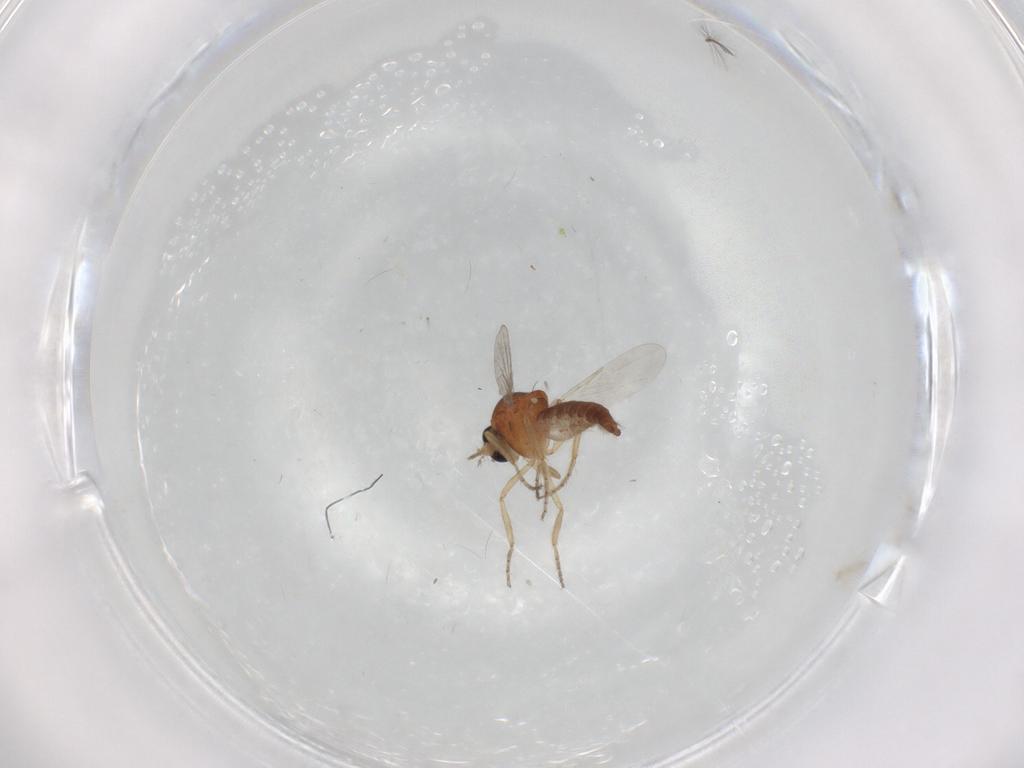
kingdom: Animalia
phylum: Arthropoda
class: Insecta
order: Diptera
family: Ceratopogonidae
